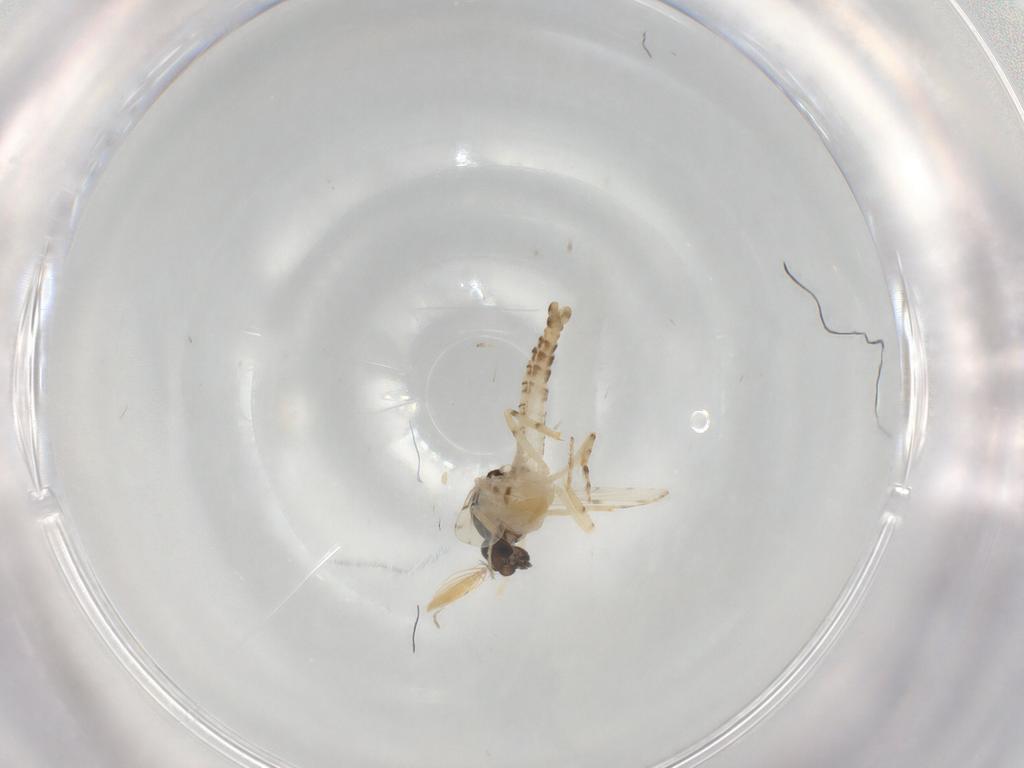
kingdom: Animalia
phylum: Arthropoda
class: Insecta
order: Diptera
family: Ceratopogonidae
